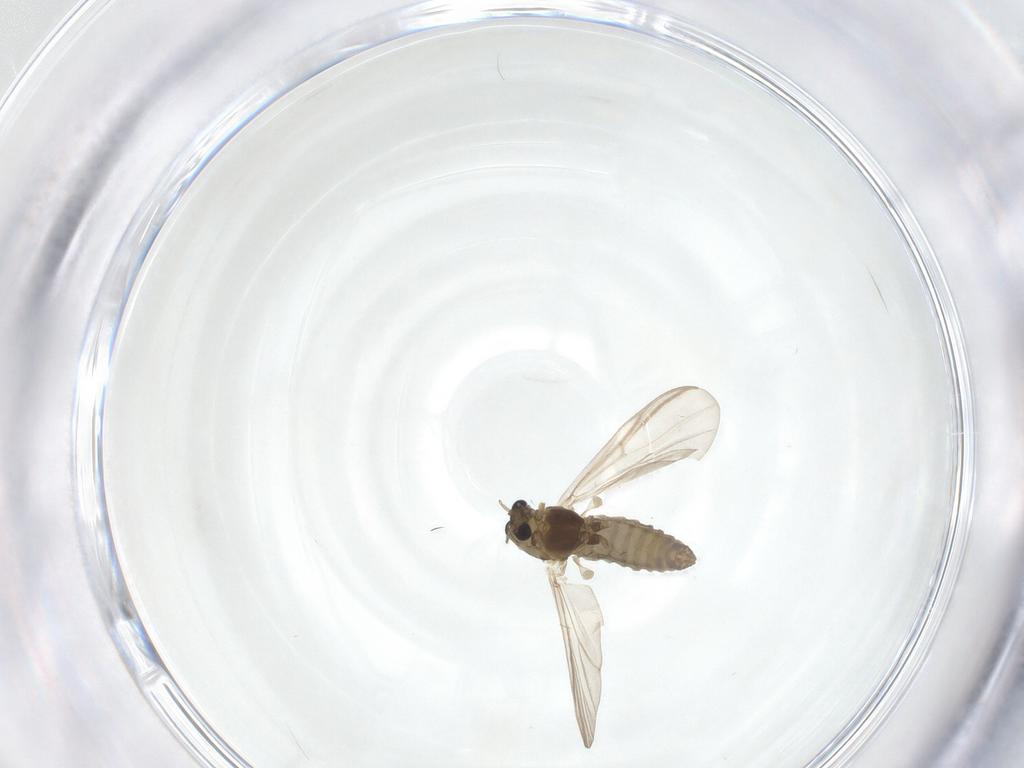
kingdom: Animalia
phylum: Arthropoda
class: Insecta
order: Diptera
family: Chironomidae
